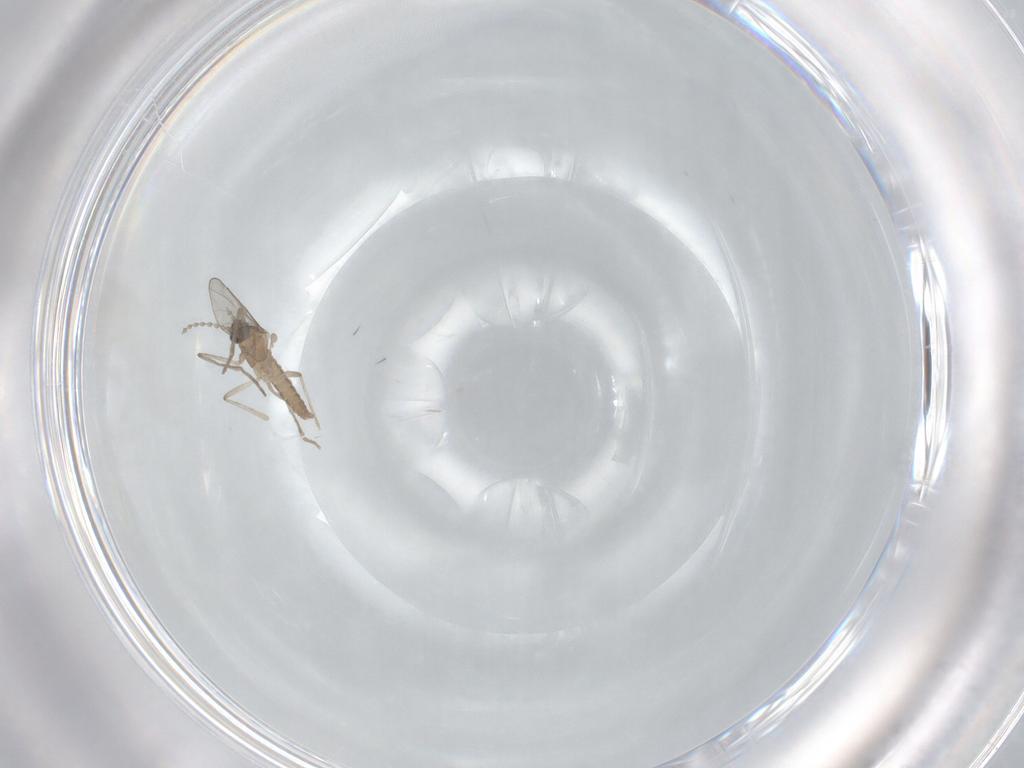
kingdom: Animalia
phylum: Arthropoda
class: Insecta
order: Diptera
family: Cecidomyiidae
